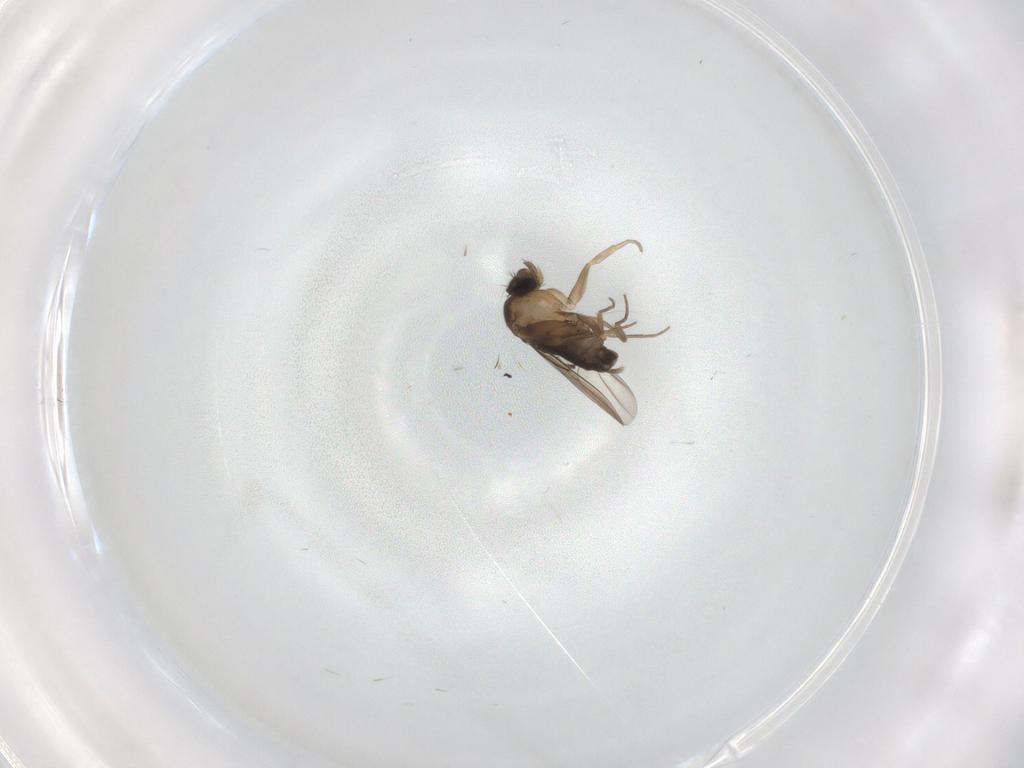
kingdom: Animalia
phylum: Arthropoda
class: Insecta
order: Diptera
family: Phoridae
